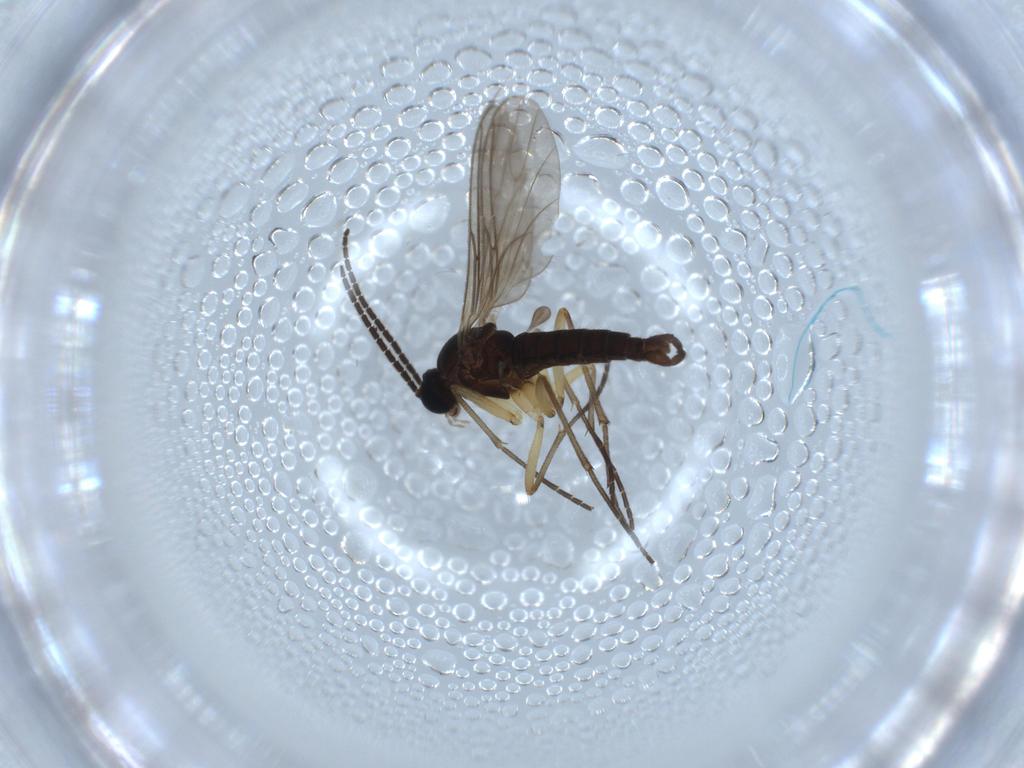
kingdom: Animalia
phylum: Arthropoda
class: Insecta
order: Diptera
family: Sciaridae
